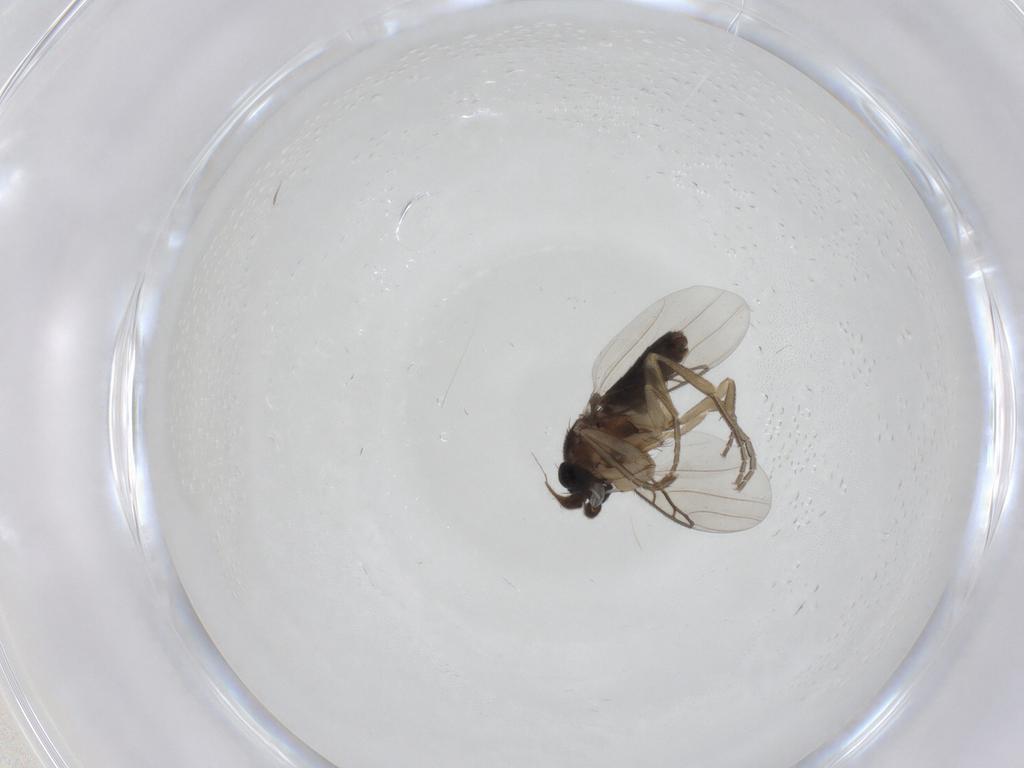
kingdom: Animalia
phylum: Arthropoda
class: Insecta
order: Diptera
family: Phoridae
